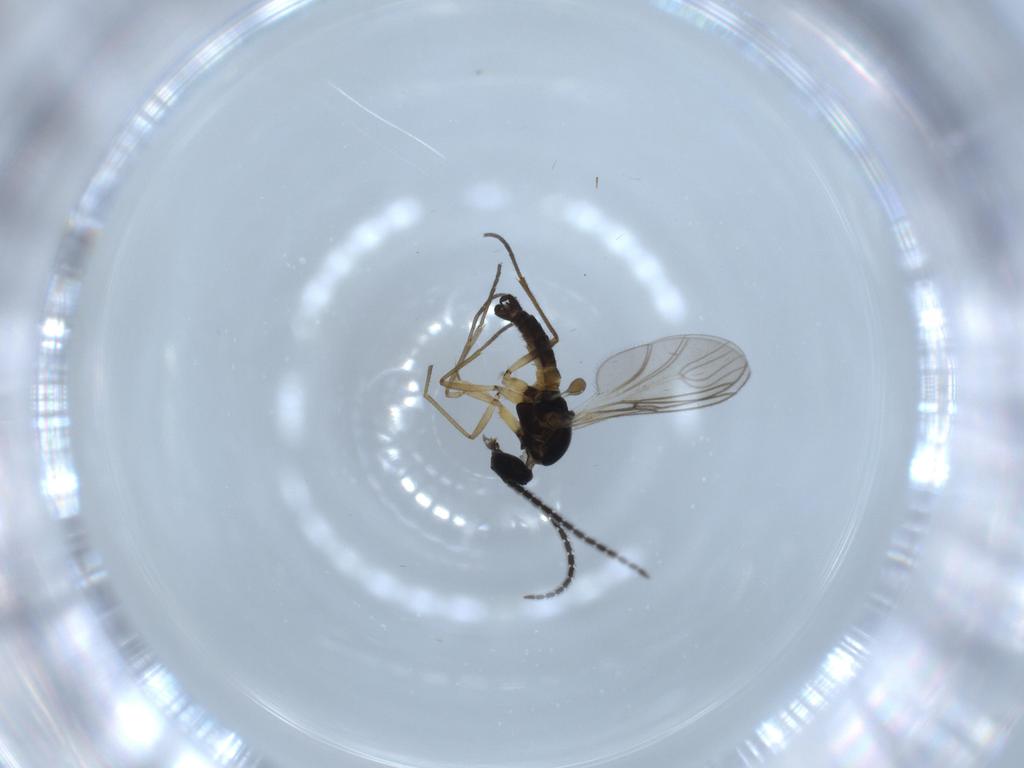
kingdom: Animalia
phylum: Arthropoda
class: Insecta
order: Diptera
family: Sciaridae
